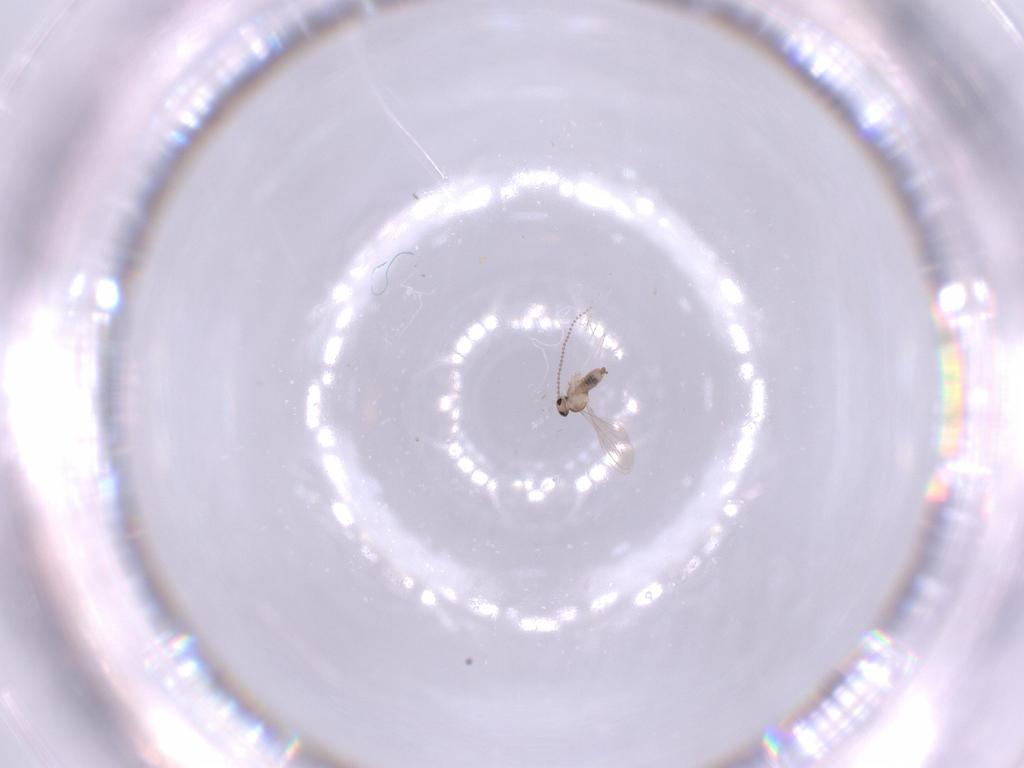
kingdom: Animalia
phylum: Arthropoda
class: Insecta
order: Diptera
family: Cecidomyiidae
